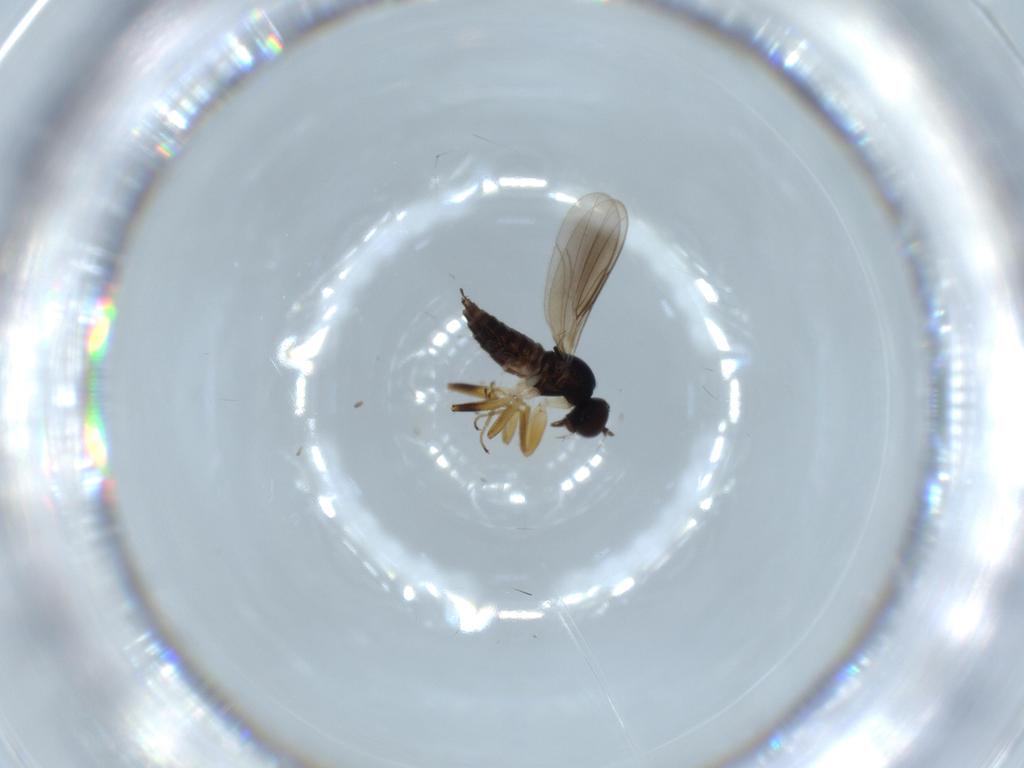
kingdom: Animalia
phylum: Arthropoda
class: Insecta
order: Diptera
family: Hybotidae
